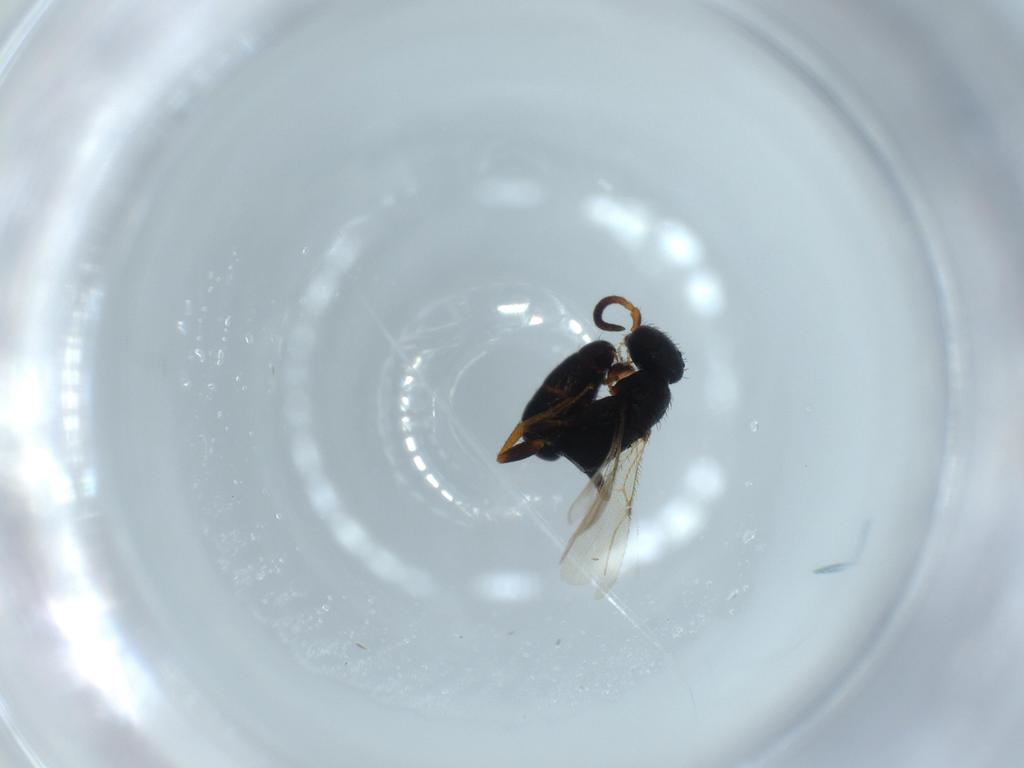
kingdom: Animalia
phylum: Arthropoda
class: Insecta
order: Hymenoptera
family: Bethylidae
